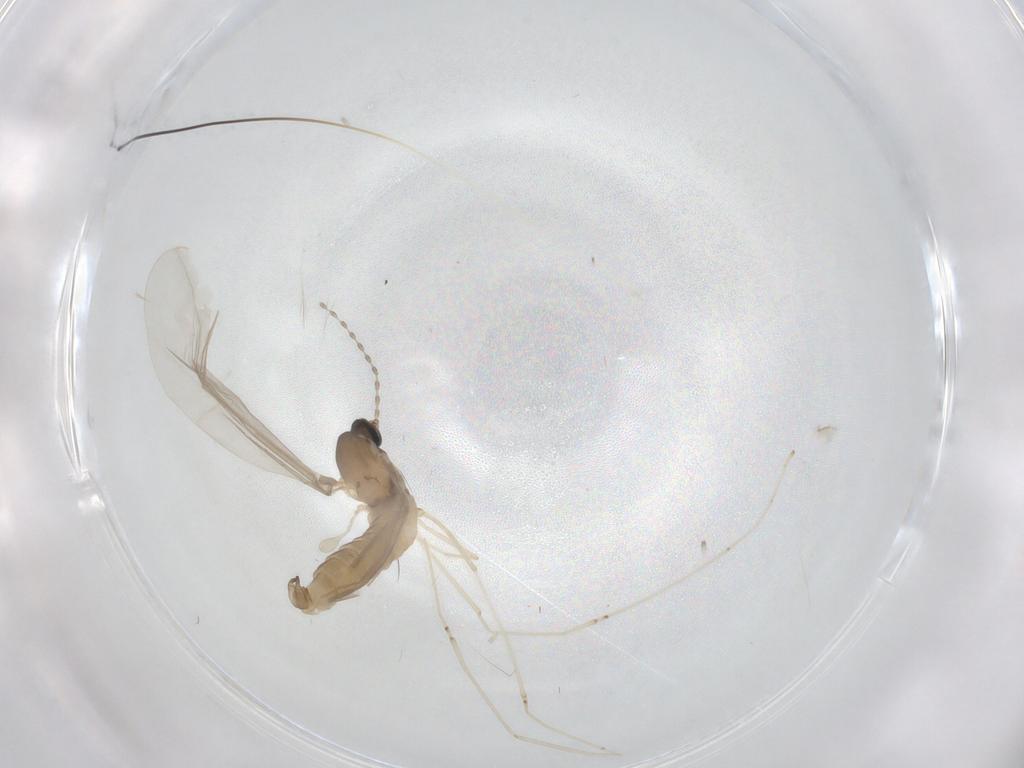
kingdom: Animalia
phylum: Arthropoda
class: Insecta
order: Diptera
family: Muscidae
